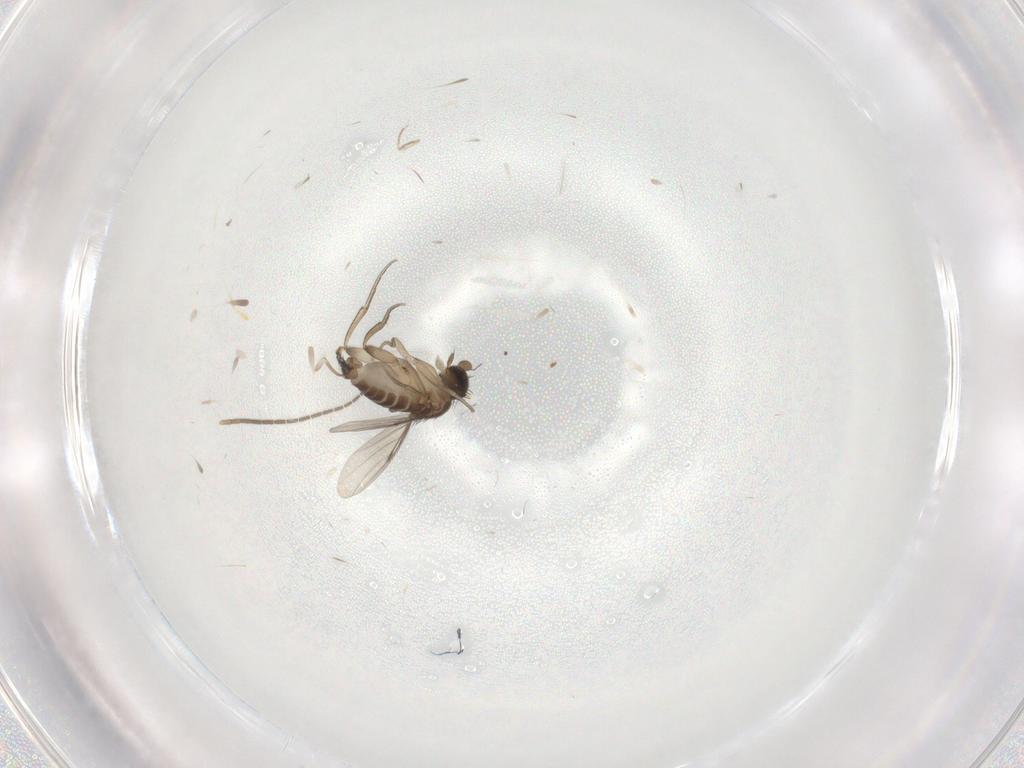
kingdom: Animalia
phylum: Arthropoda
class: Insecta
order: Diptera
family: Phoridae
